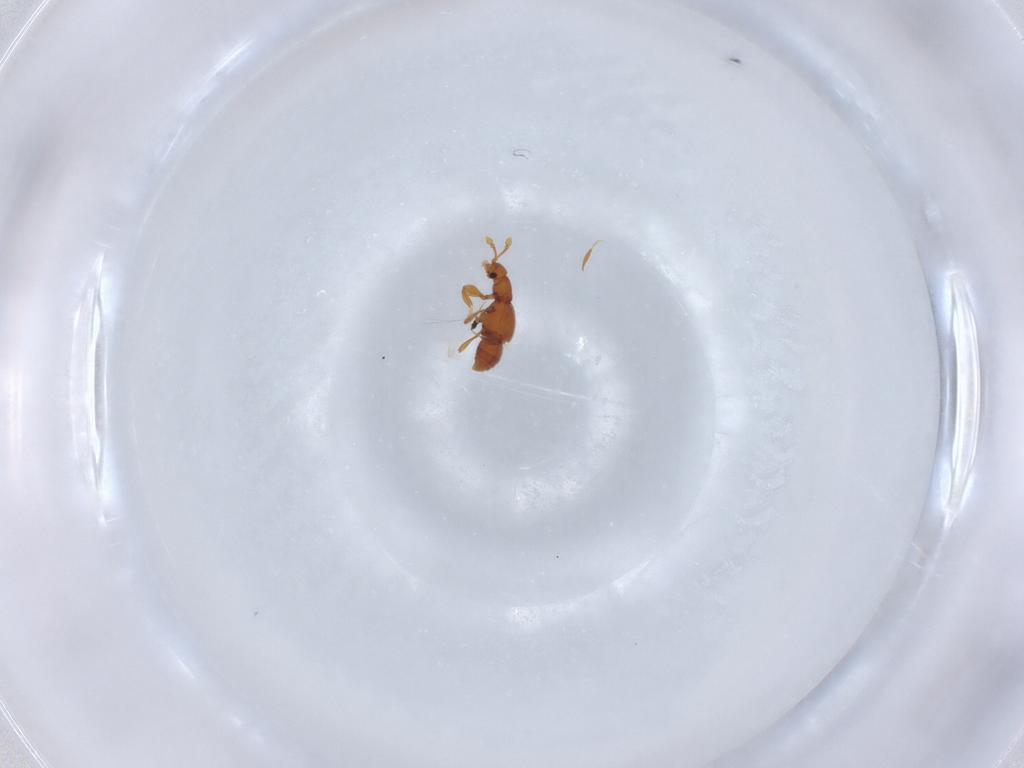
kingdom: Animalia
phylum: Arthropoda
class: Insecta
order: Coleoptera
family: Staphylinidae
